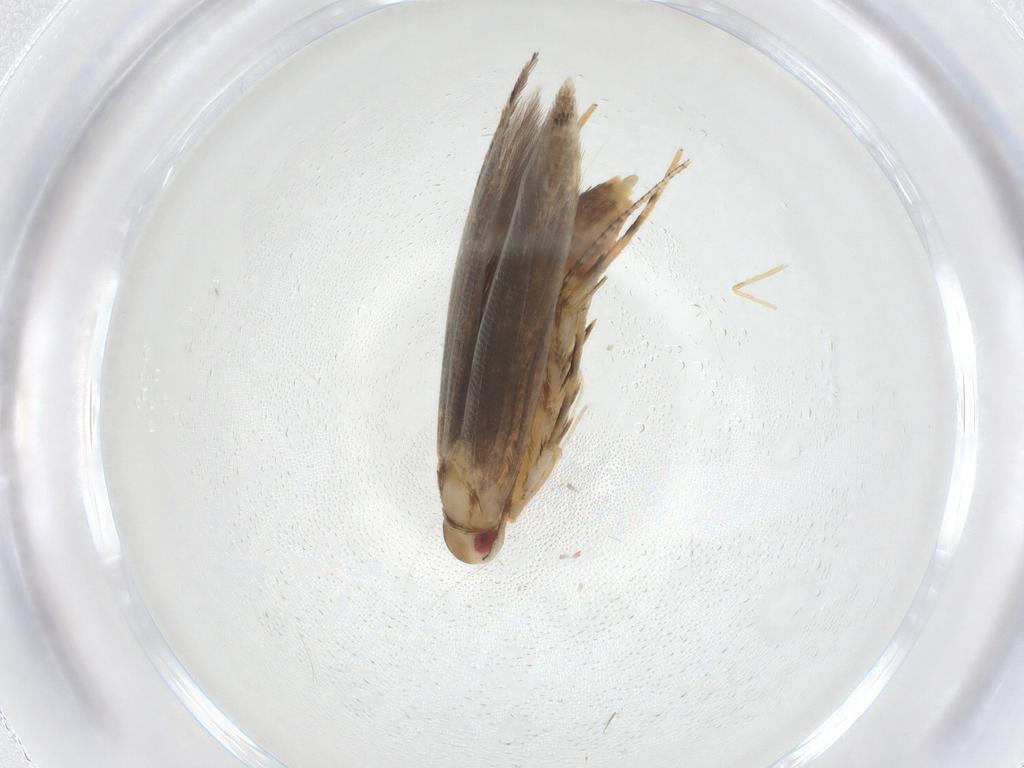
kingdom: Animalia
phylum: Arthropoda
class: Insecta
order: Lepidoptera
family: Cosmopterigidae
